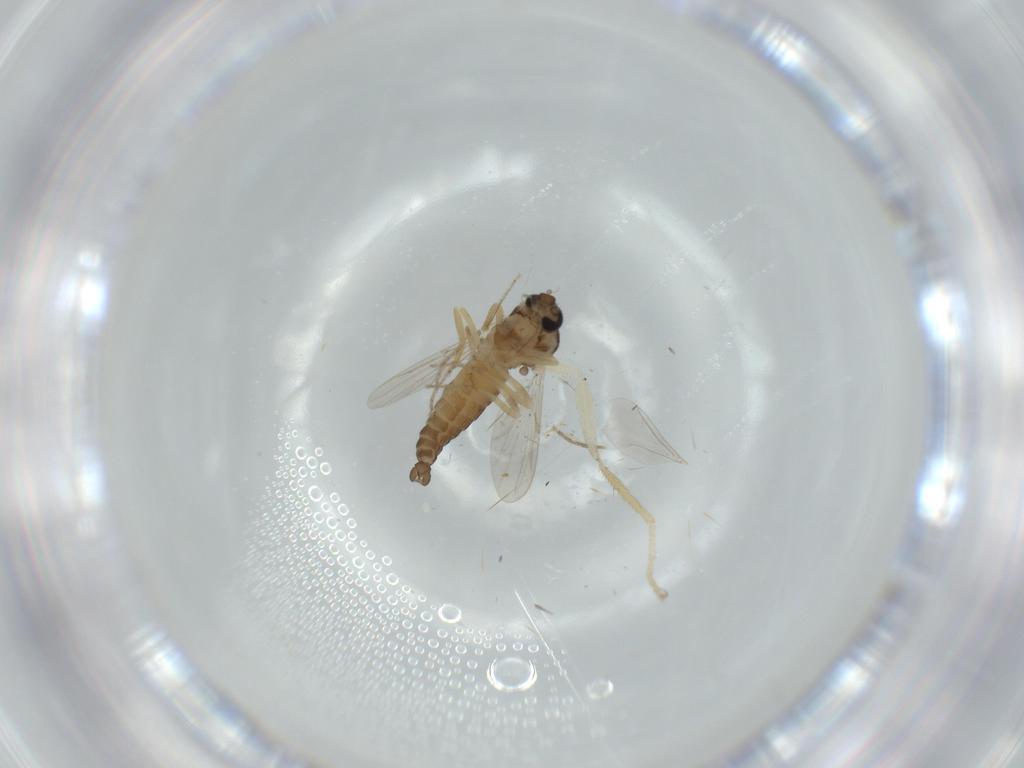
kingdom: Animalia
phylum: Arthropoda
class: Insecta
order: Diptera
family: Ceratopogonidae
